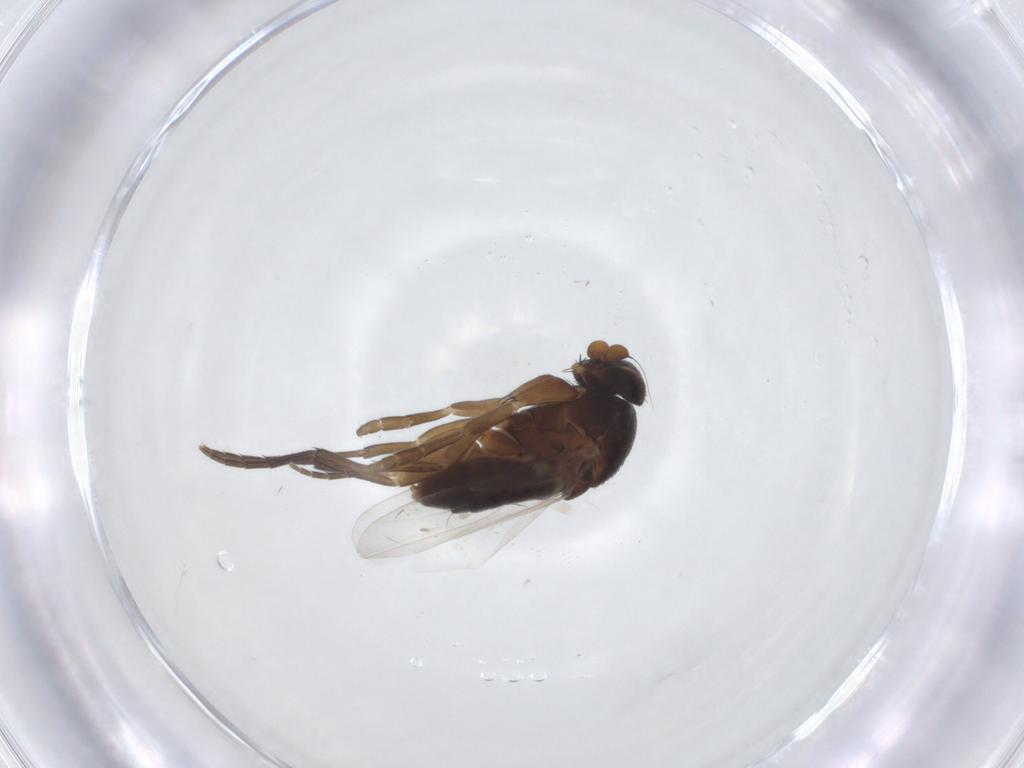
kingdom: Animalia
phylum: Arthropoda
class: Insecta
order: Diptera
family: Phoridae
